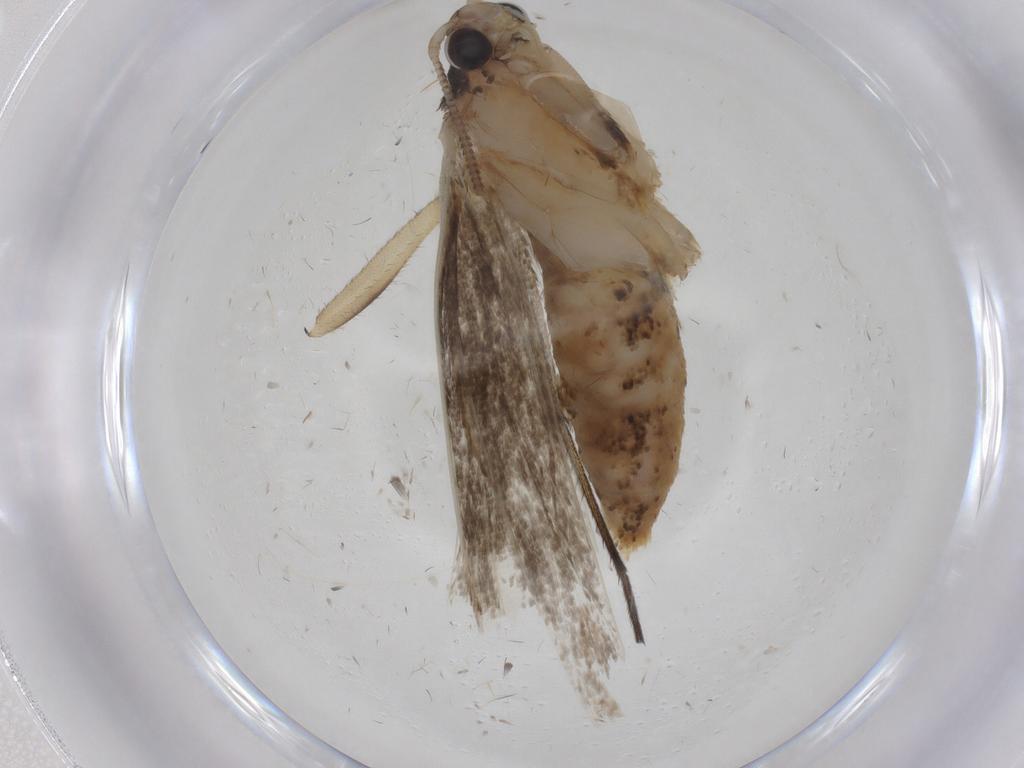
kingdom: Animalia
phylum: Arthropoda
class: Insecta
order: Lepidoptera
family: Tineidae
